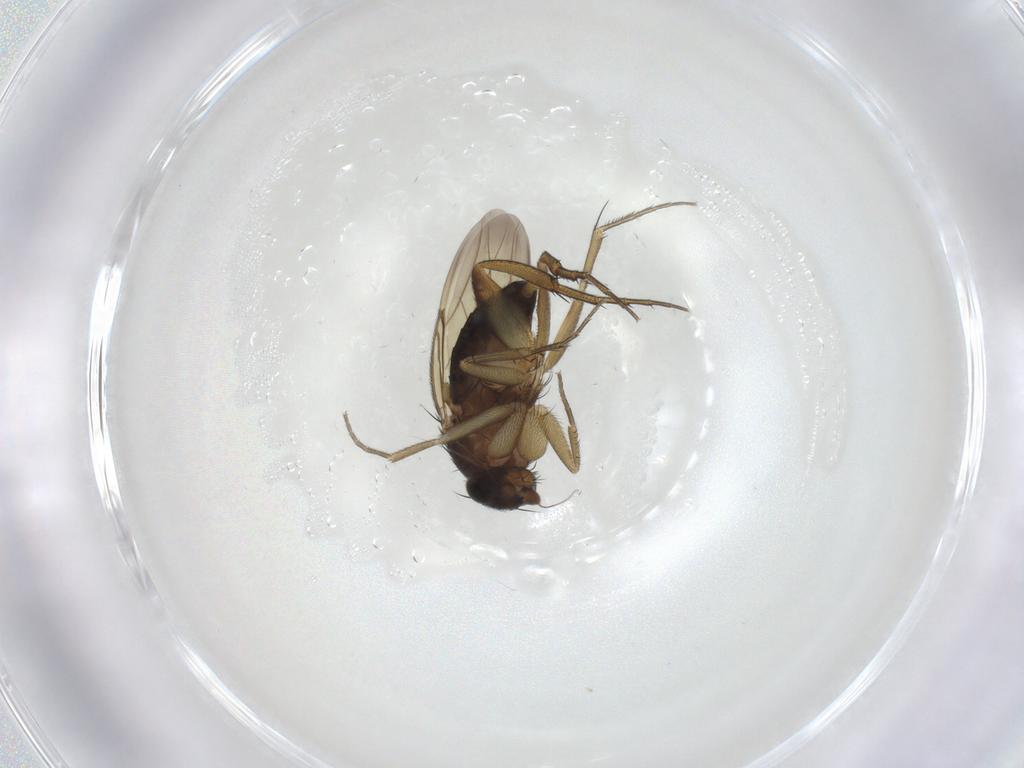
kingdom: Animalia
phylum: Arthropoda
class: Insecta
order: Diptera
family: Phoridae
